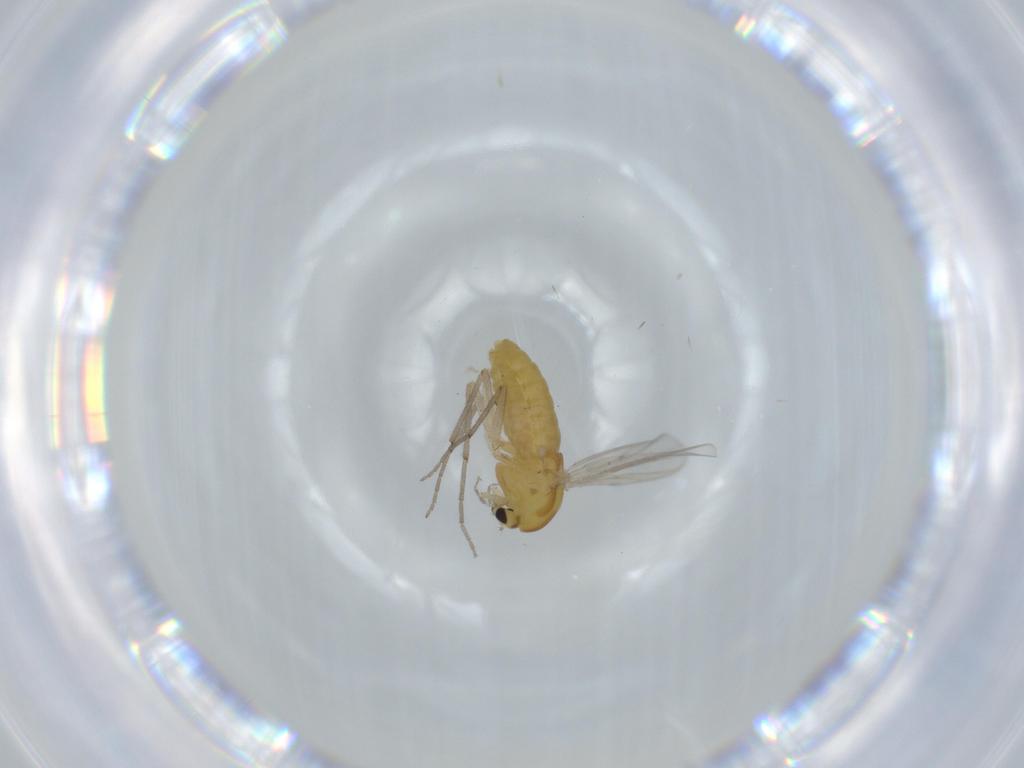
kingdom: Animalia
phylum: Arthropoda
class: Insecta
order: Diptera
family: Chironomidae
